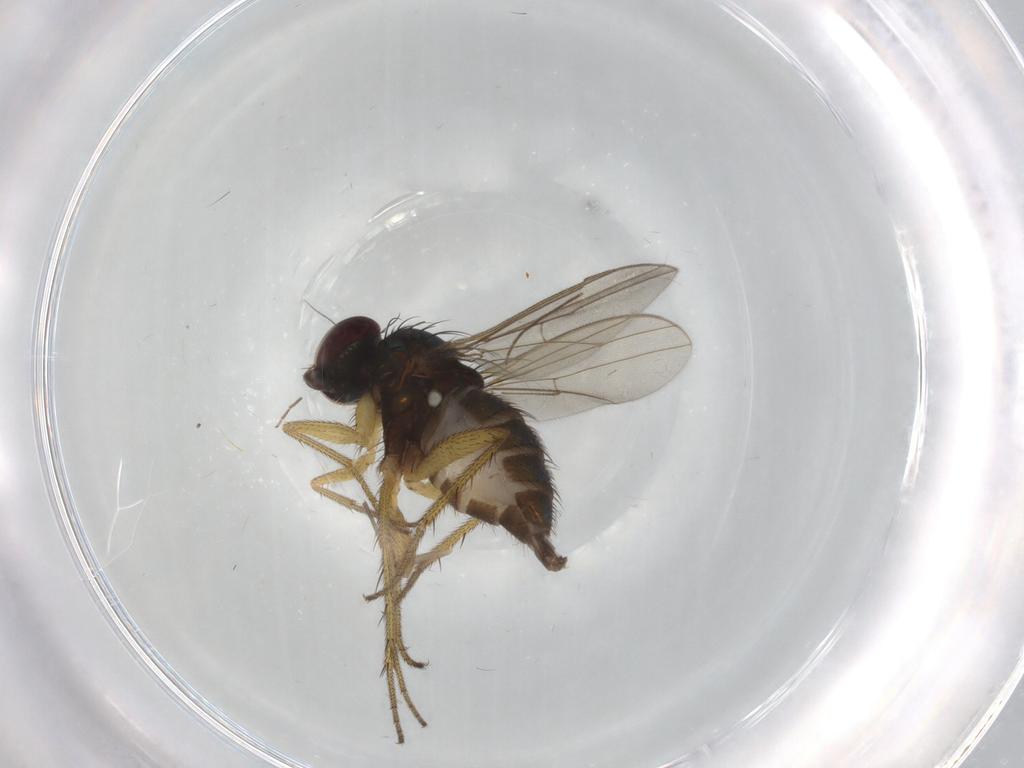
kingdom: Animalia
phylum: Arthropoda
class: Insecta
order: Diptera
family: Dolichopodidae
